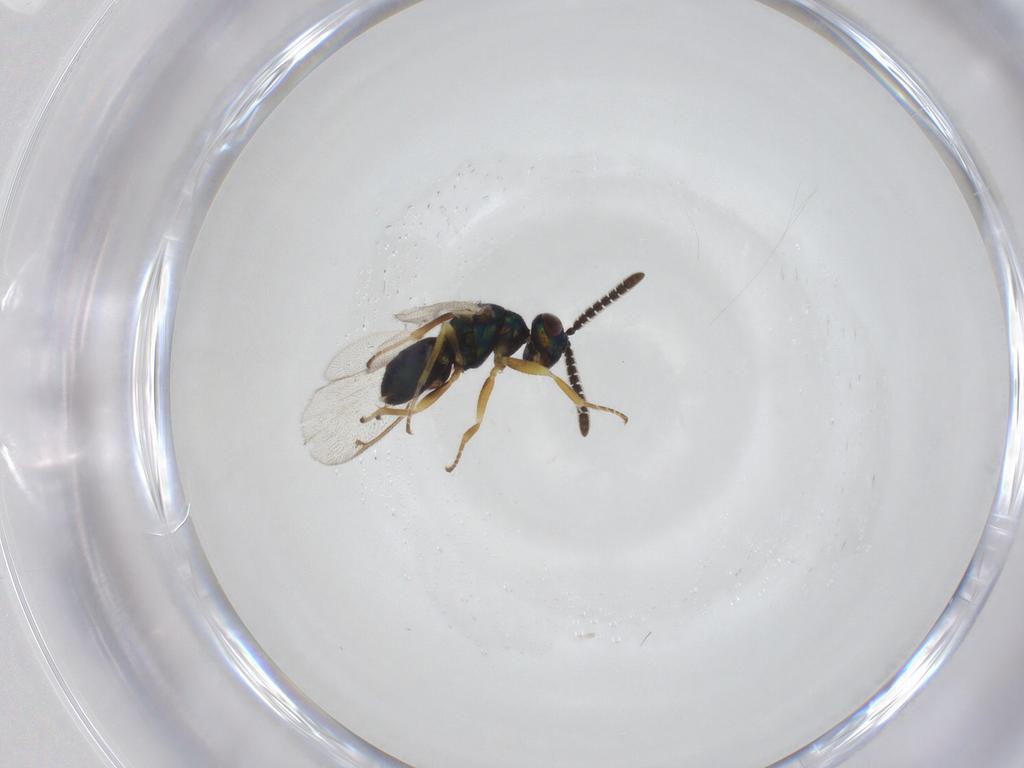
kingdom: Animalia
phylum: Arthropoda
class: Insecta
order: Hymenoptera
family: Torymidae
